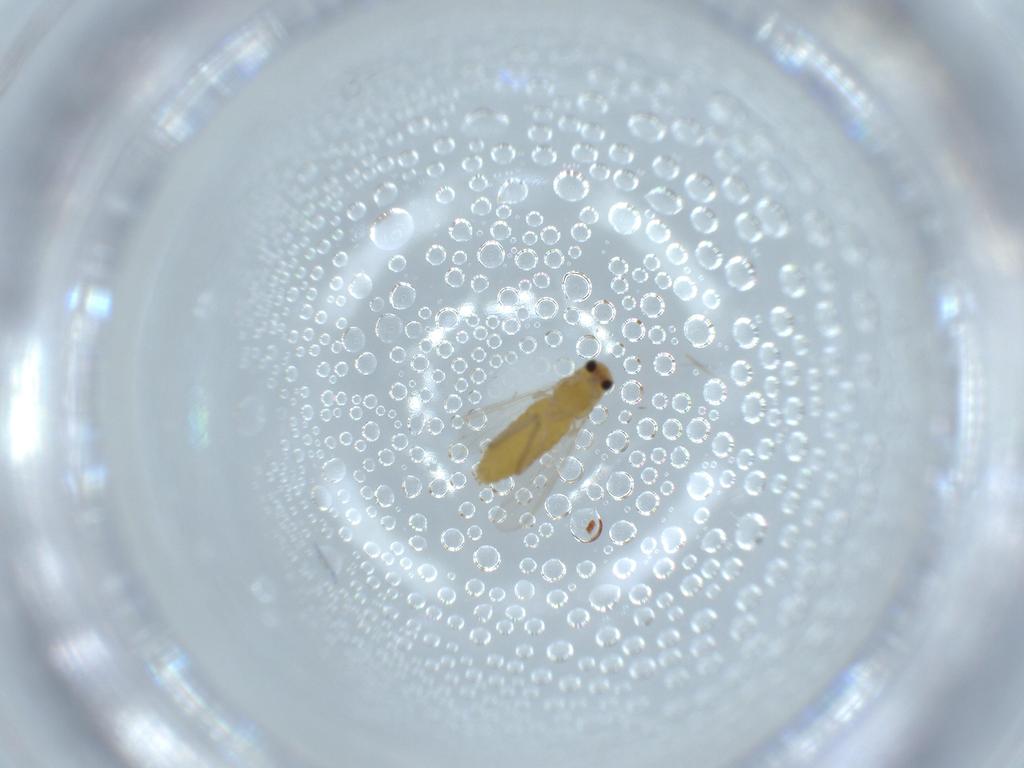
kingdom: Animalia
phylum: Arthropoda
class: Insecta
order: Diptera
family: Chironomidae
